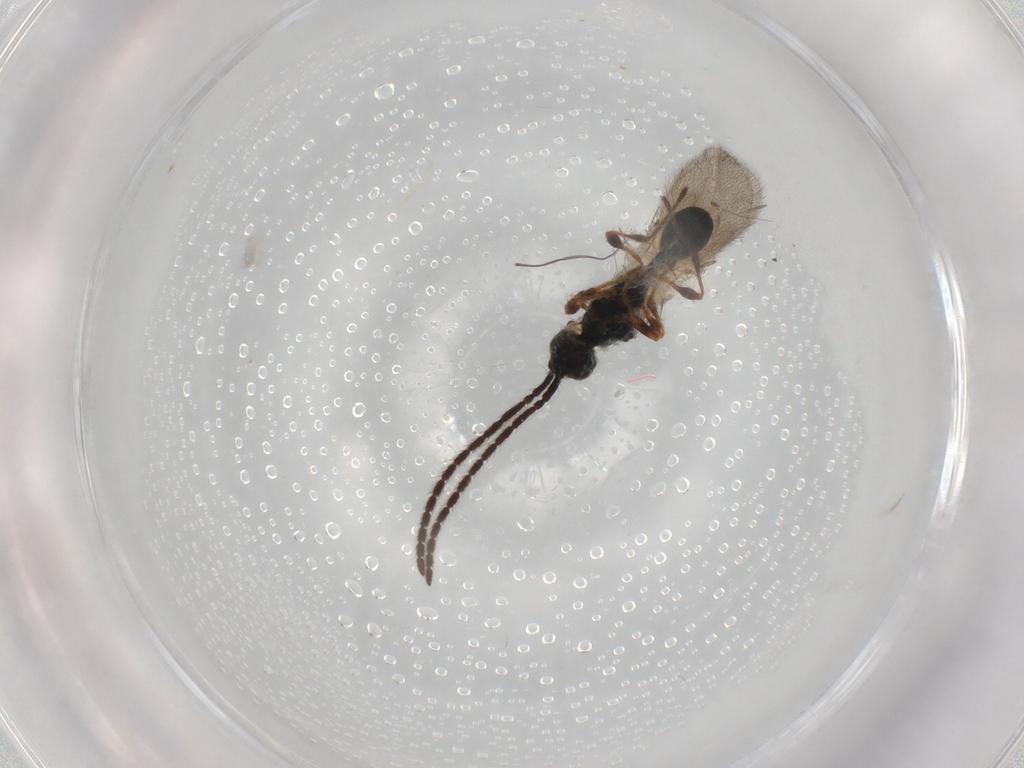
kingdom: Animalia
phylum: Arthropoda
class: Insecta
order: Hymenoptera
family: Diapriidae
